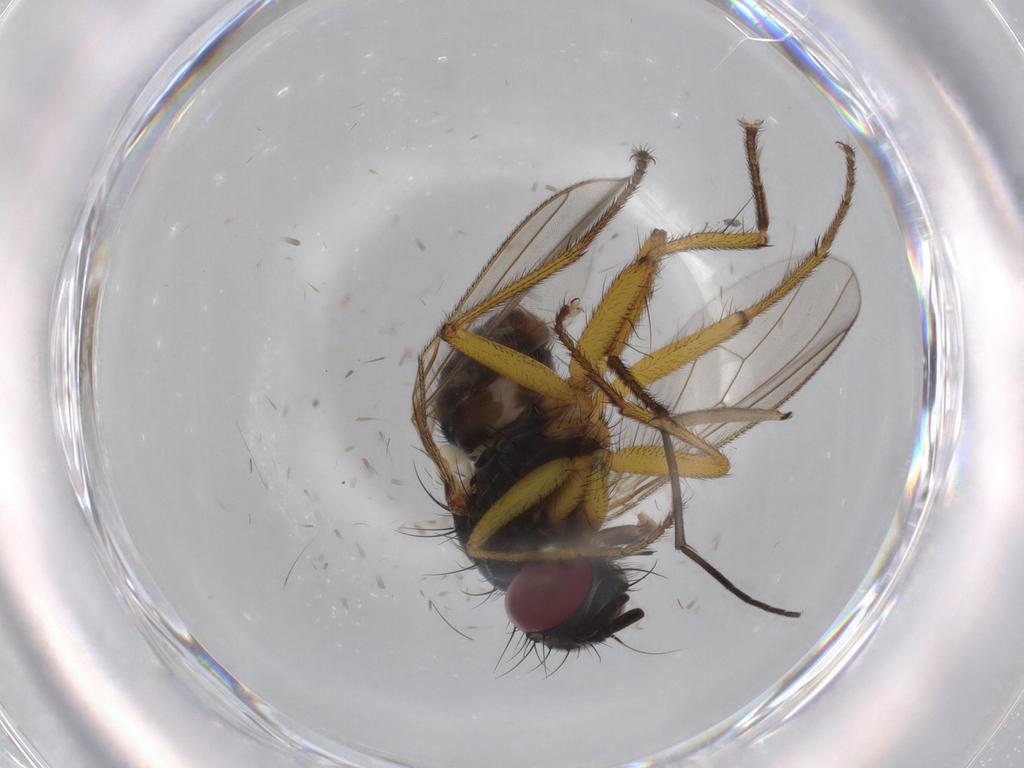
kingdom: Animalia
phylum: Arthropoda
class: Insecta
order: Diptera
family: Muscidae
